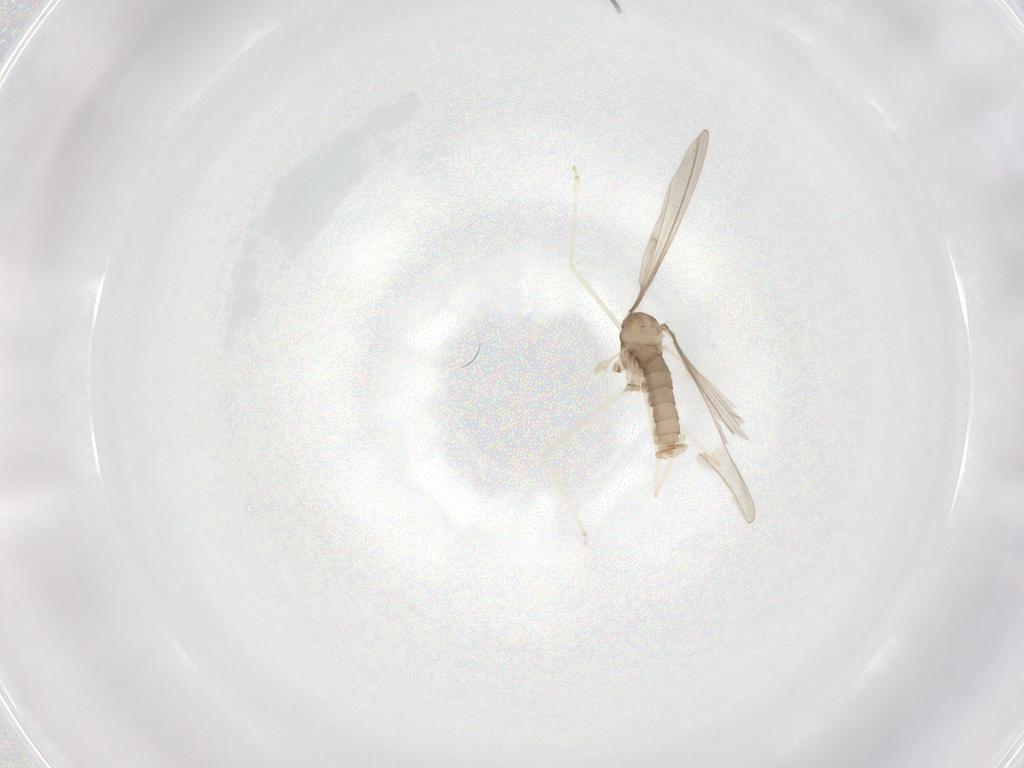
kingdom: Animalia
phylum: Arthropoda
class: Insecta
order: Diptera
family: Cecidomyiidae
